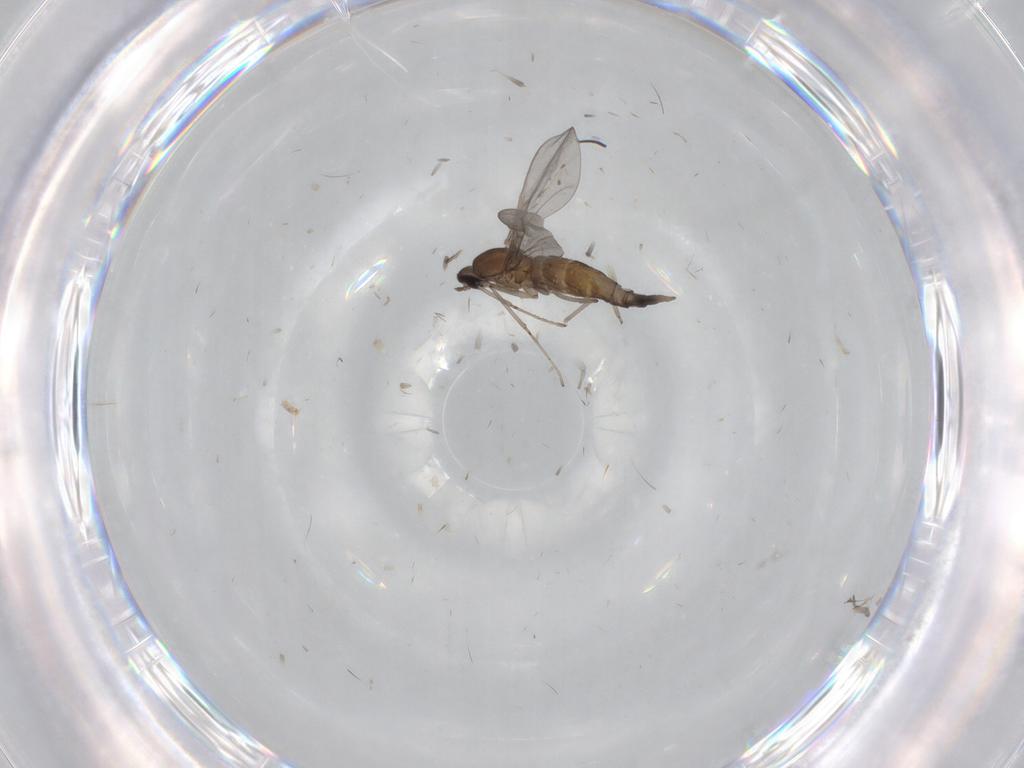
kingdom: Animalia
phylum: Arthropoda
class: Insecta
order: Diptera
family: Cecidomyiidae
